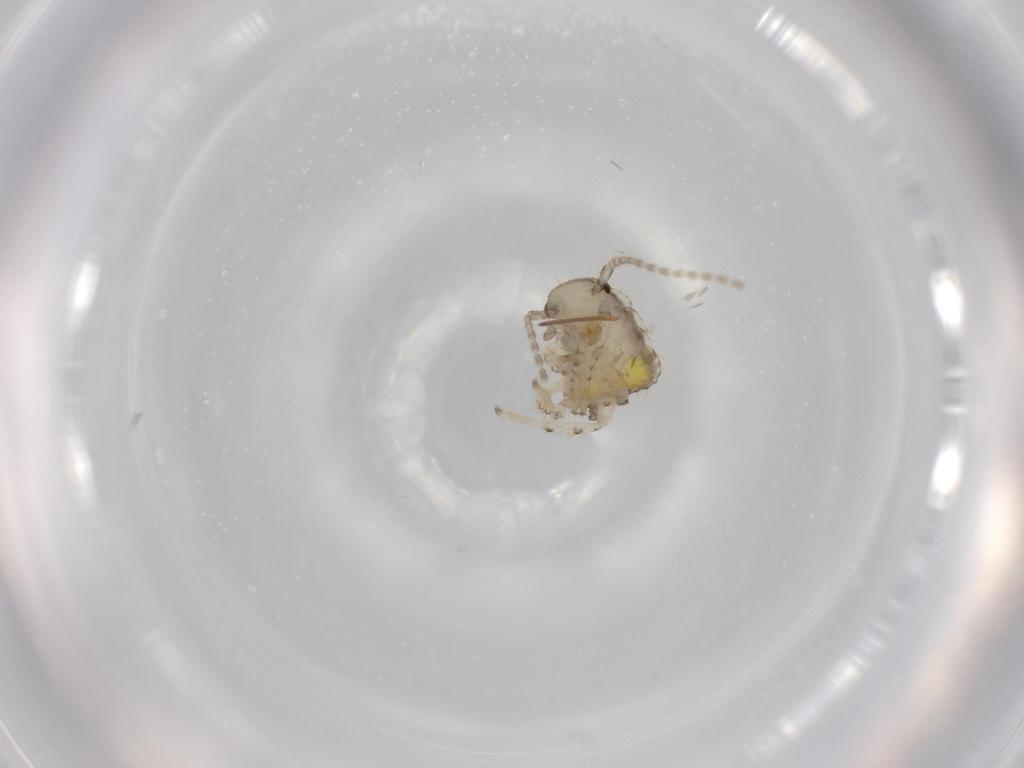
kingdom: Animalia
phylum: Arthropoda
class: Insecta
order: Blattodea
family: Ectobiidae
